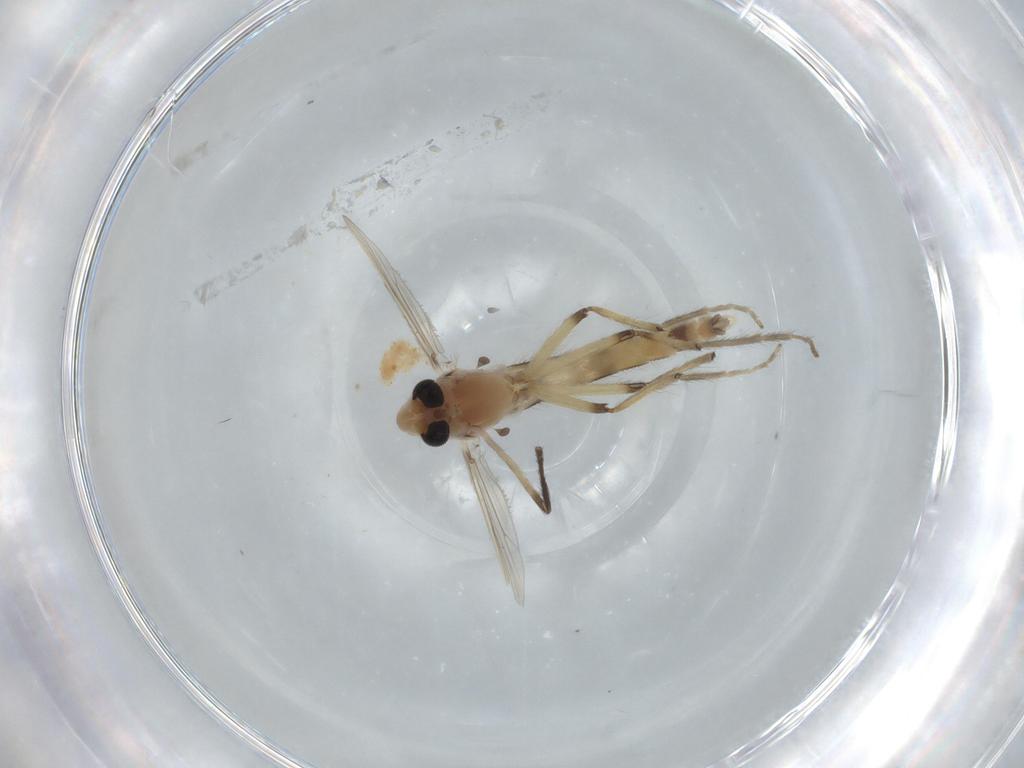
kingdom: Animalia
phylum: Arthropoda
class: Insecta
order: Diptera
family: Chironomidae
